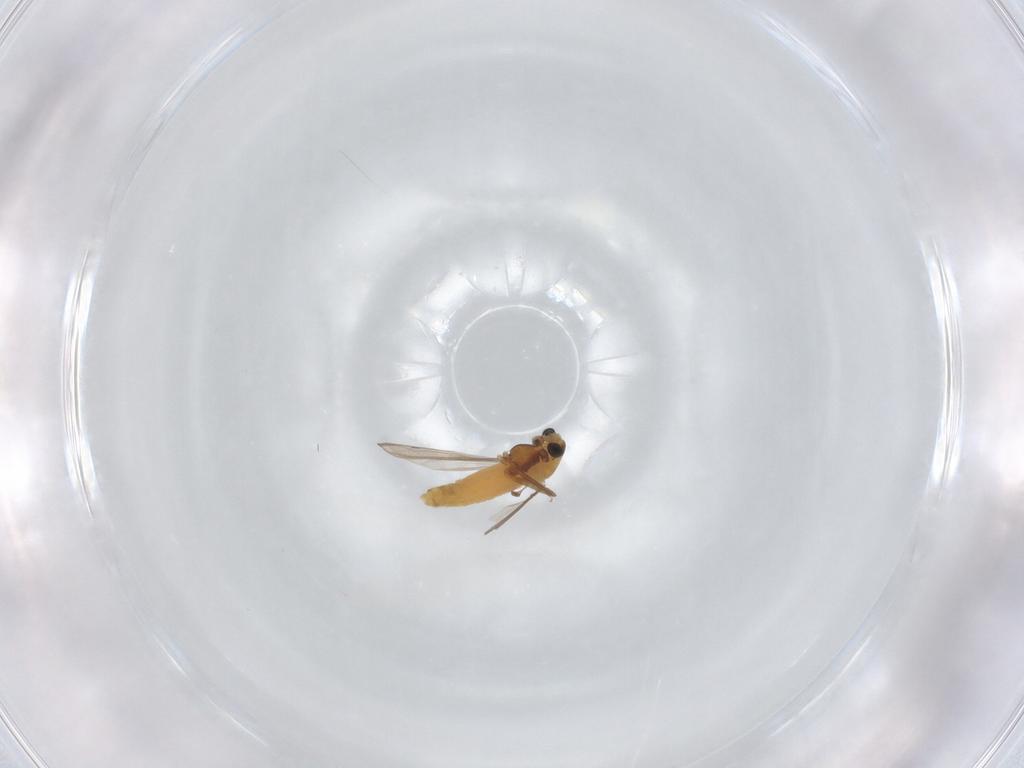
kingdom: Animalia
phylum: Arthropoda
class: Insecta
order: Diptera
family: Chironomidae
